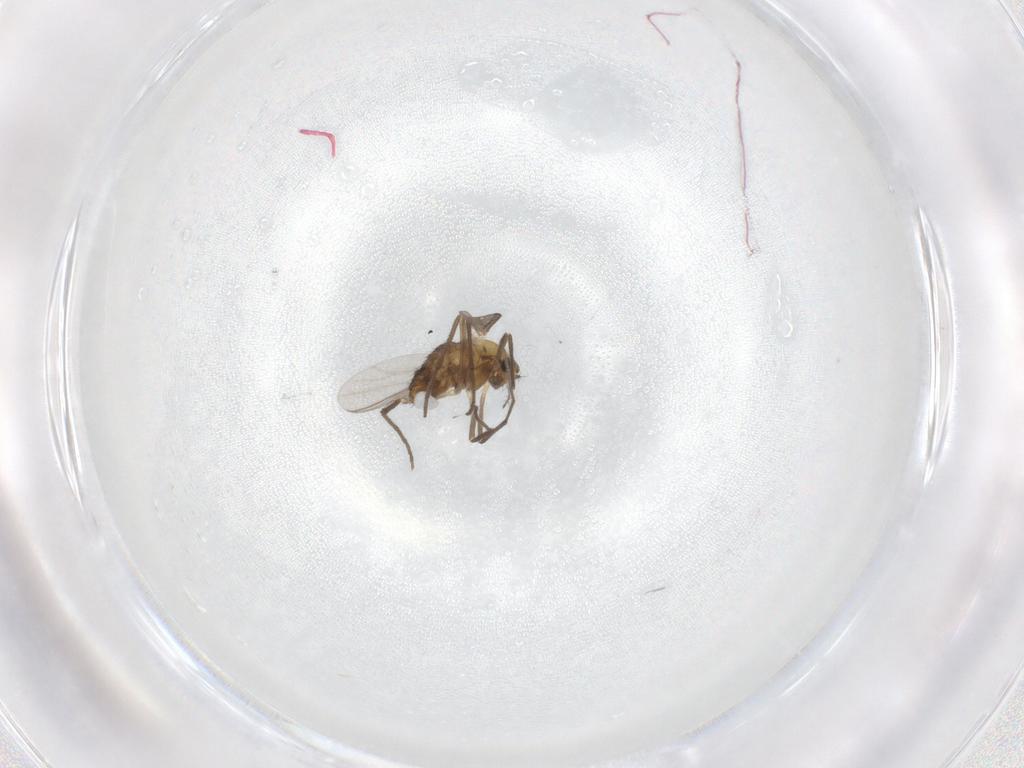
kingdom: Animalia
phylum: Arthropoda
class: Insecta
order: Diptera
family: Chironomidae
